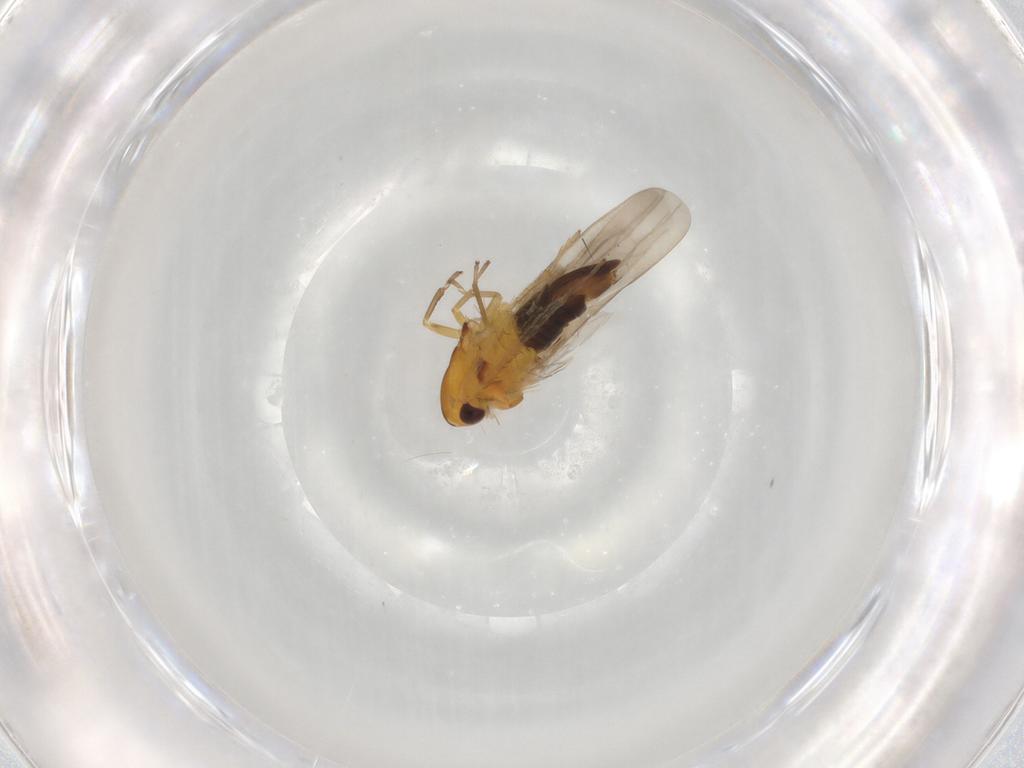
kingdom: Animalia
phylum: Arthropoda
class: Insecta
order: Hemiptera
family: Cicadellidae
